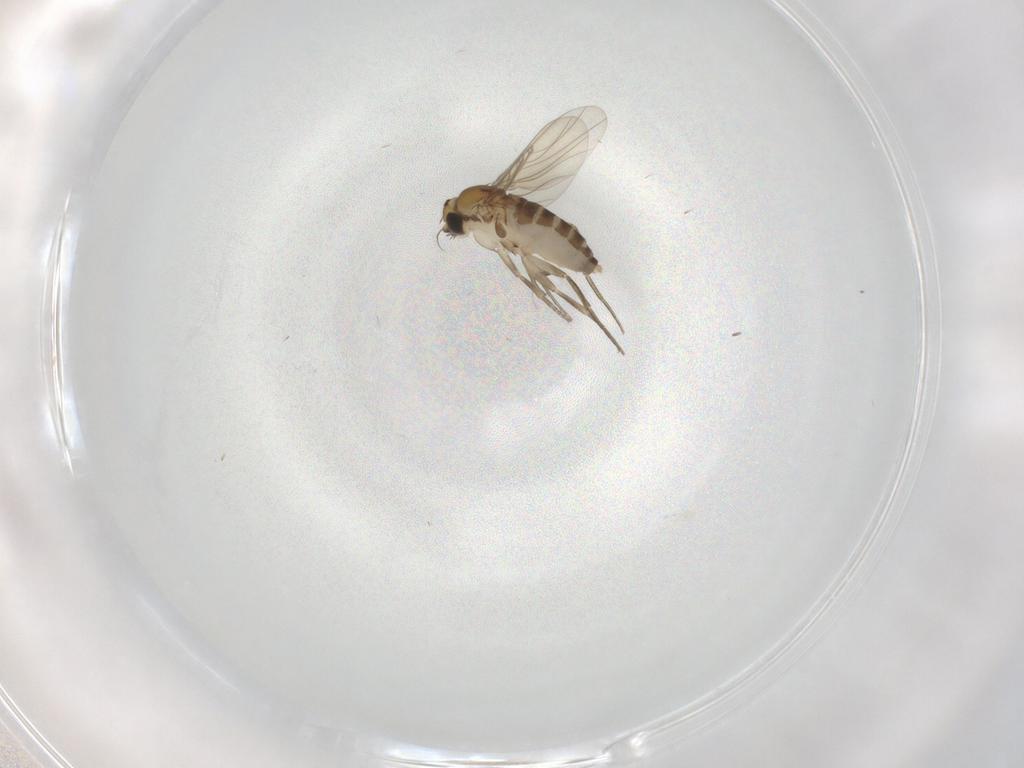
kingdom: Animalia
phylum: Arthropoda
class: Insecta
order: Diptera
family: Phoridae
